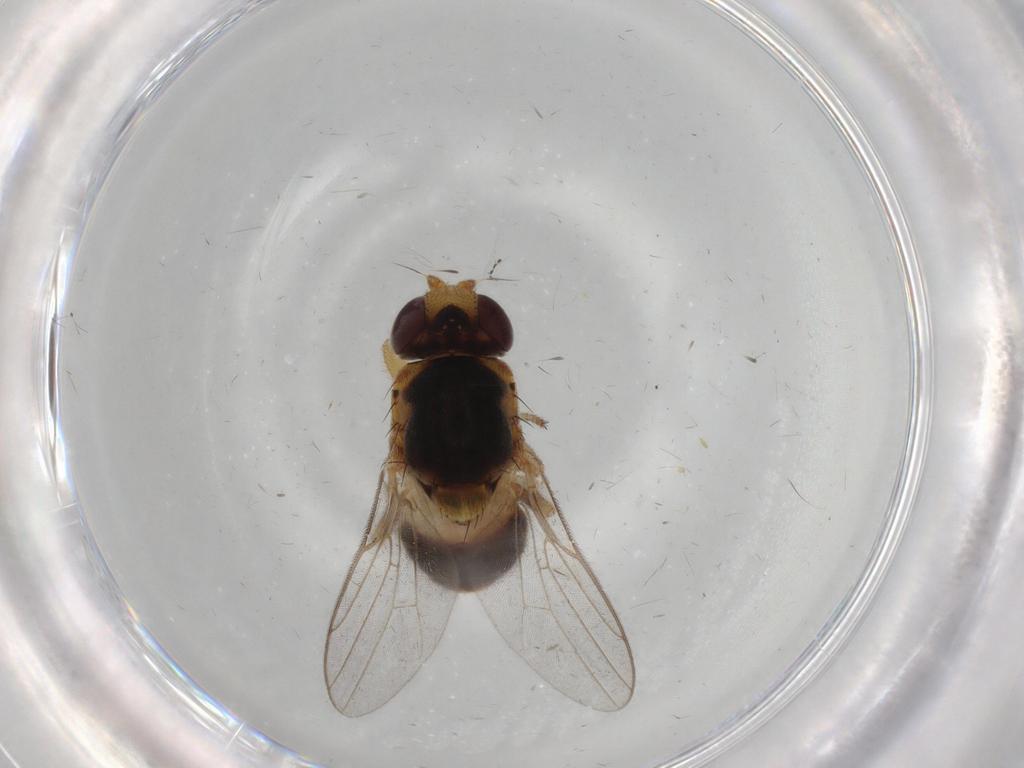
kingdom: Animalia
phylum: Arthropoda
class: Insecta
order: Diptera
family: Chloropidae
